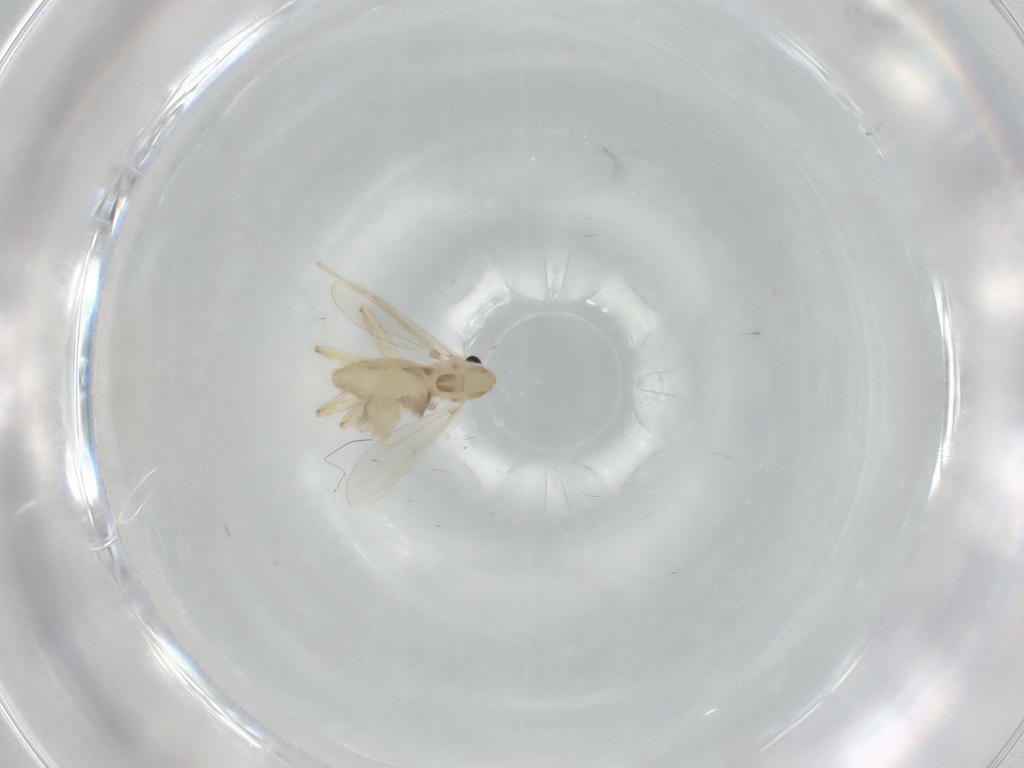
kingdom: Animalia
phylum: Arthropoda
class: Insecta
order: Diptera
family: Chironomidae
